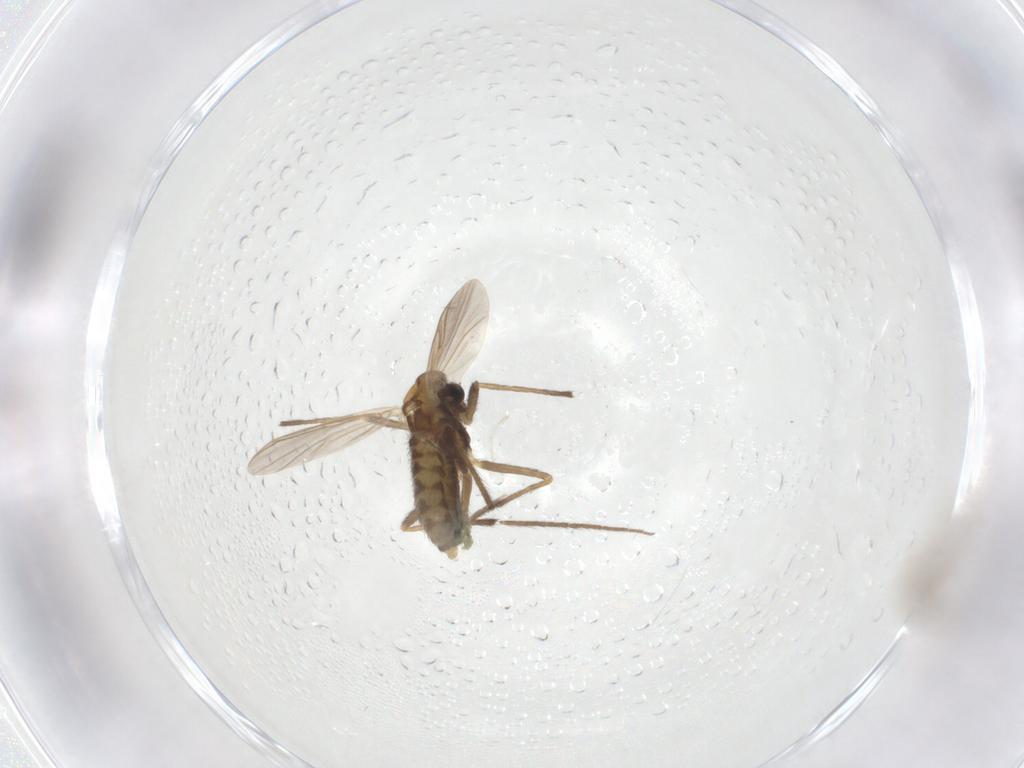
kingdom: Animalia
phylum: Arthropoda
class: Insecta
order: Diptera
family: Chironomidae
